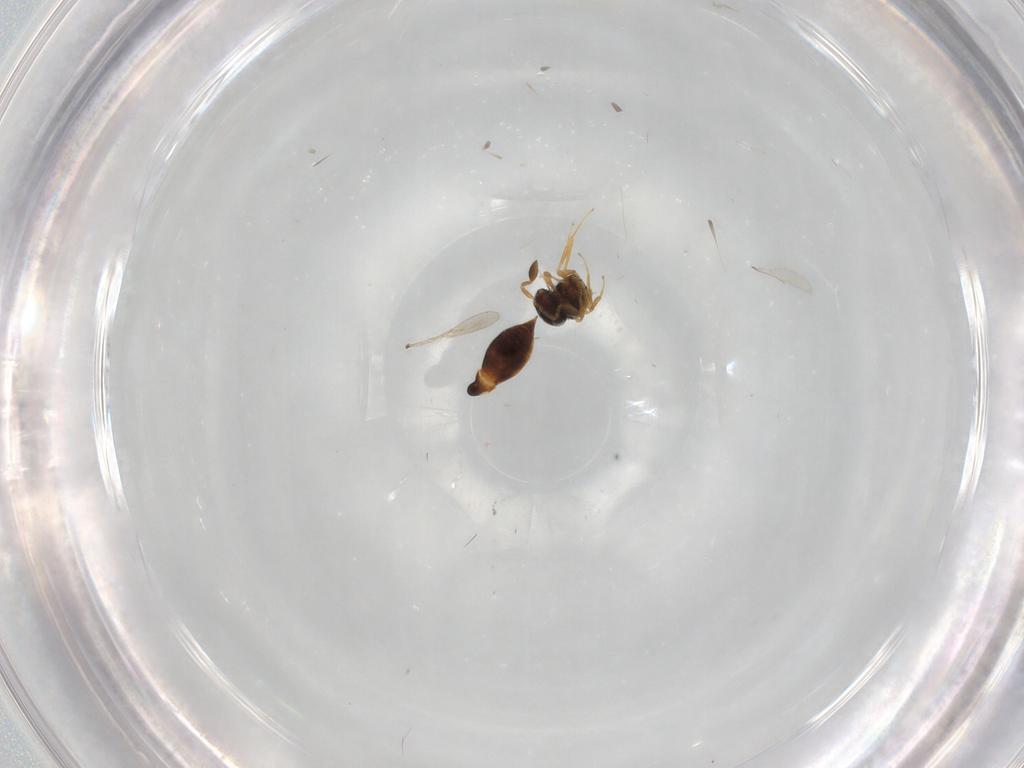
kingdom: Animalia
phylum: Arthropoda
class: Insecta
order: Hymenoptera
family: Scelionidae
